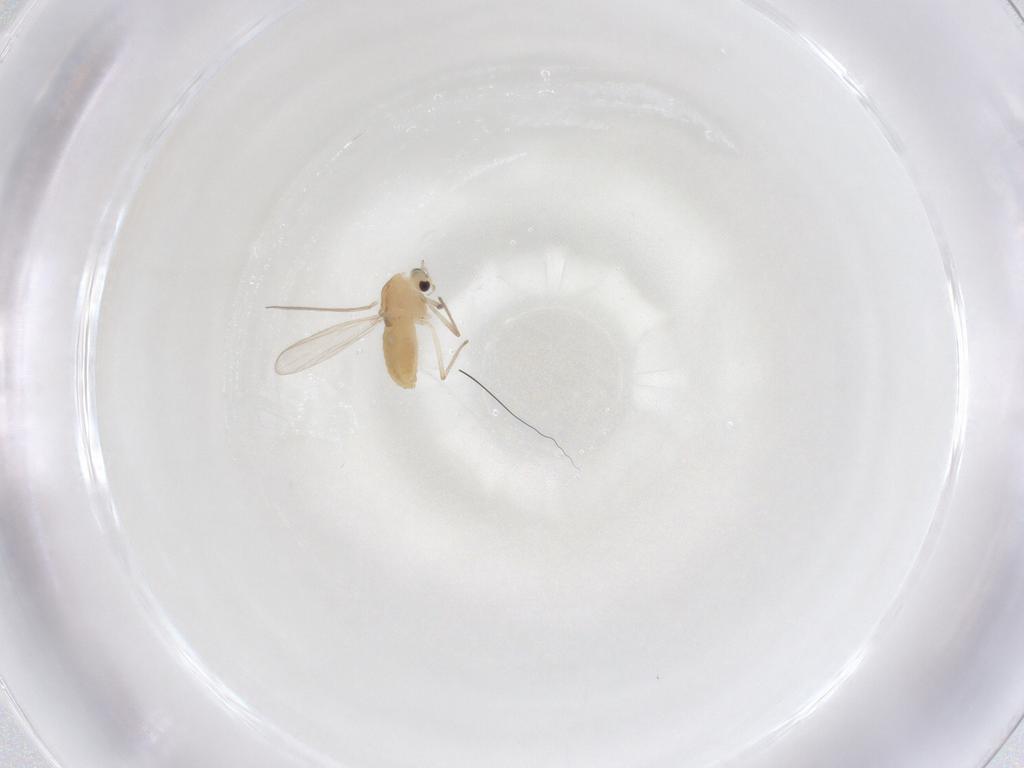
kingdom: Animalia
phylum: Arthropoda
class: Insecta
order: Diptera
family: Chironomidae
